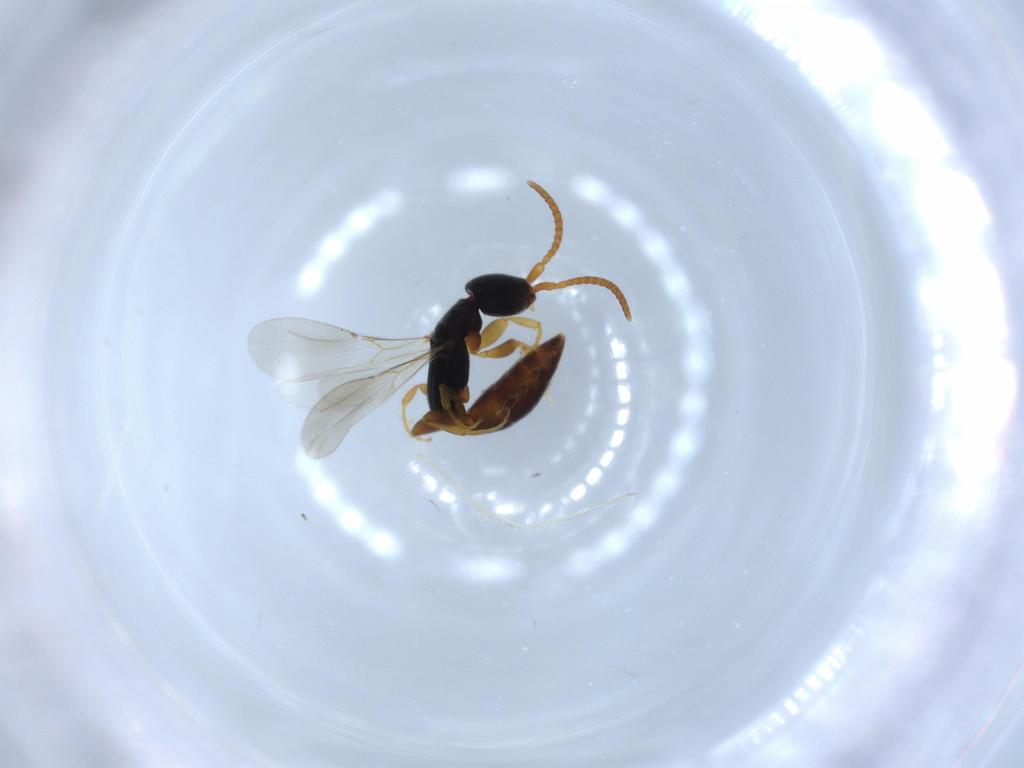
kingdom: Animalia
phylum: Arthropoda
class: Insecta
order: Hymenoptera
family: Bethylidae
